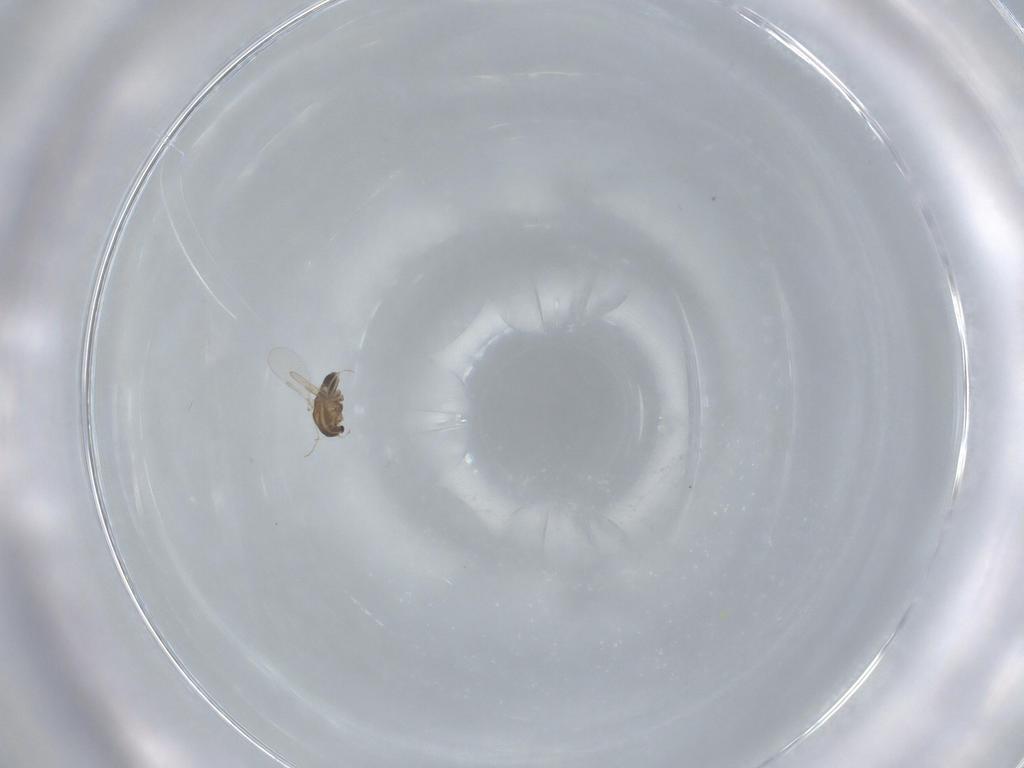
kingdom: Animalia
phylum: Arthropoda
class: Insecta
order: Diptera
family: Chironomidae
